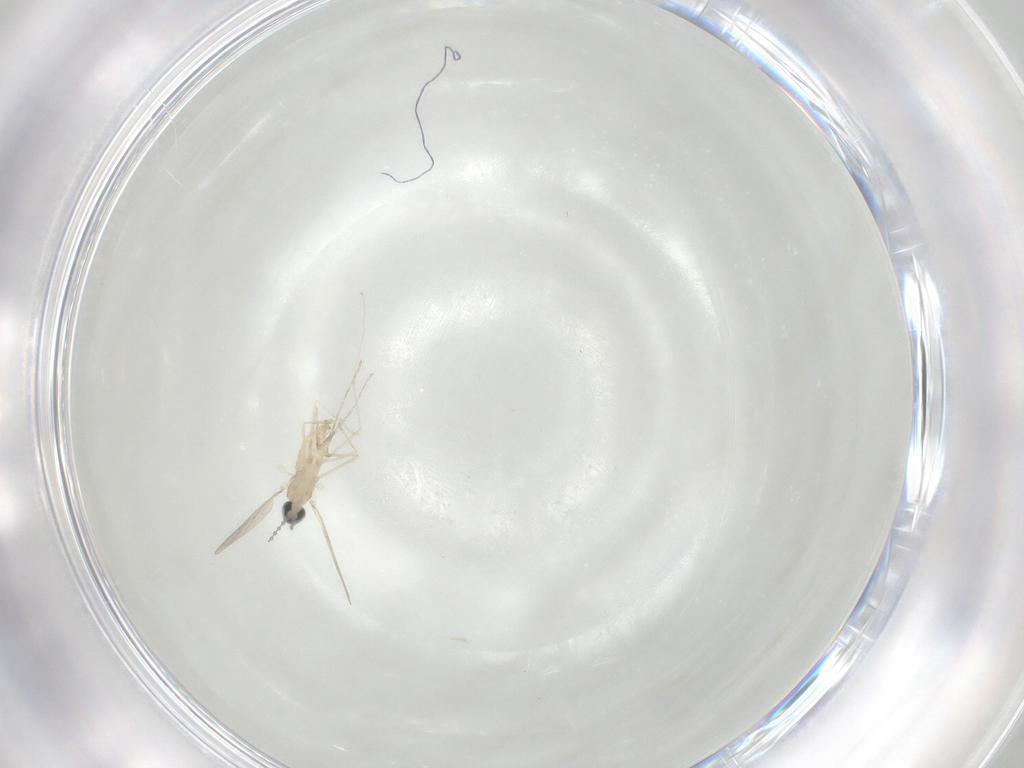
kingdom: Animalia
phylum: Arthropoda
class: Insecta
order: Diptera
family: Cecidomyiidae
